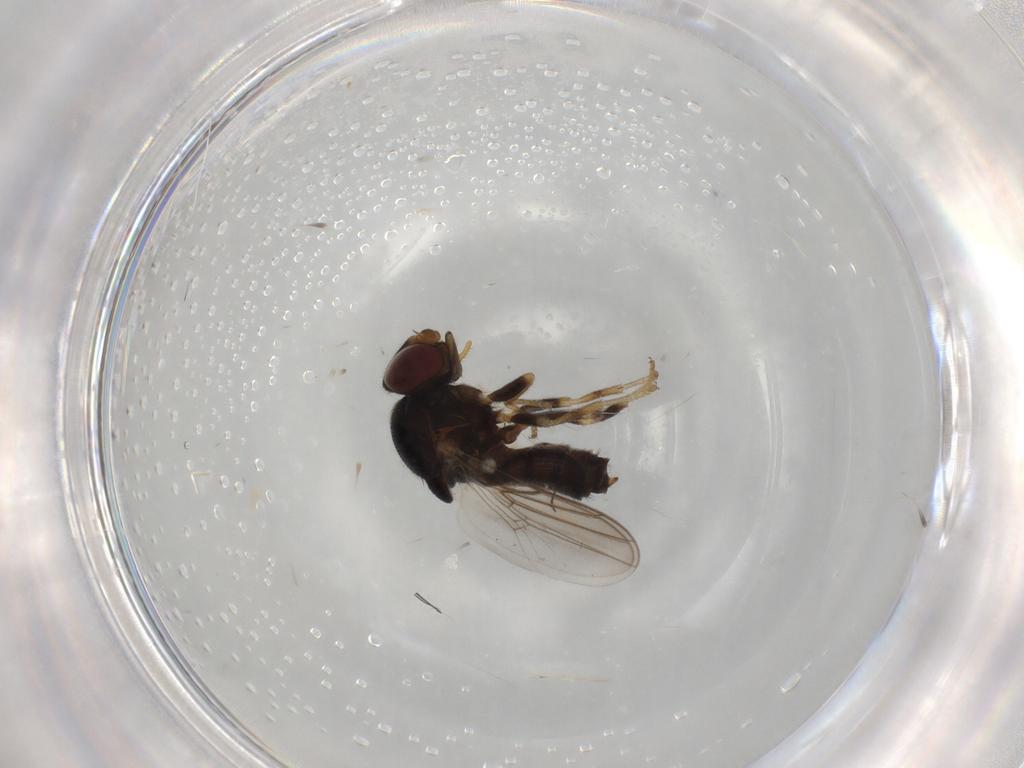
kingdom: Animalia
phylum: Arthropoda
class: Insecta
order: Diptera
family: Chloropidae
